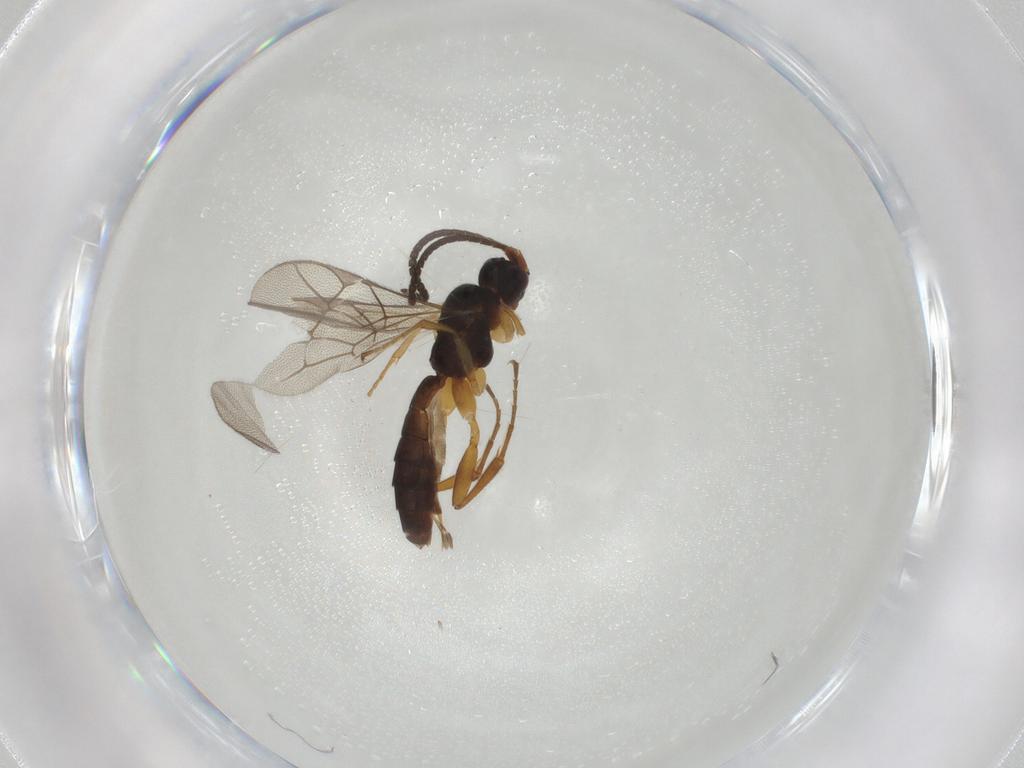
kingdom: Animalia
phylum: Arthropoda
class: Insecta
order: Hymenoptera
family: Ichneumonidae
